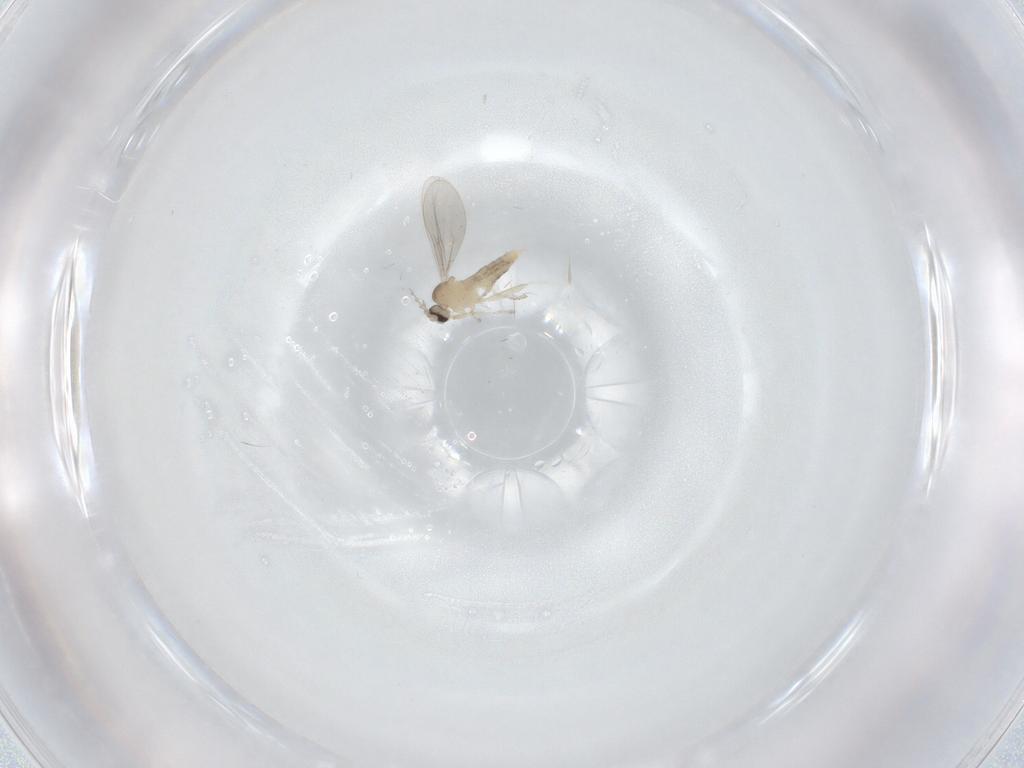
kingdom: Animalia
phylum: Arthropoda
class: Insecta
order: Diptera
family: Cecidomyiidae
